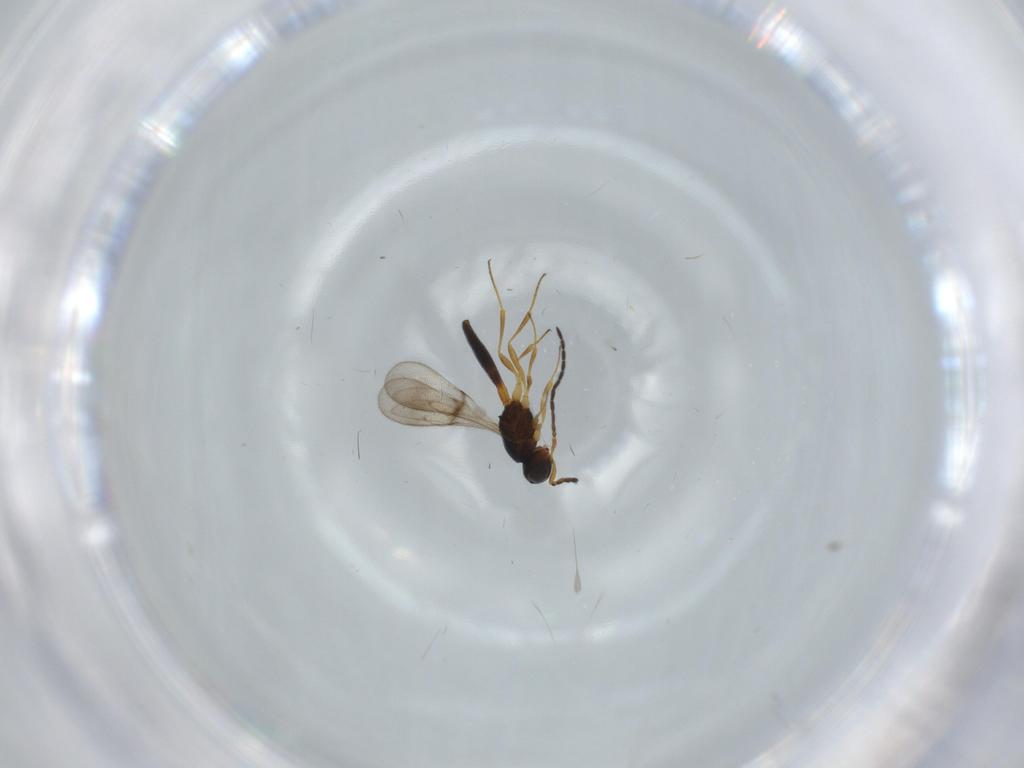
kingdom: Animalia
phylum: Arthropoda
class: Insecta
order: Hymenoptera
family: Scelionidae
